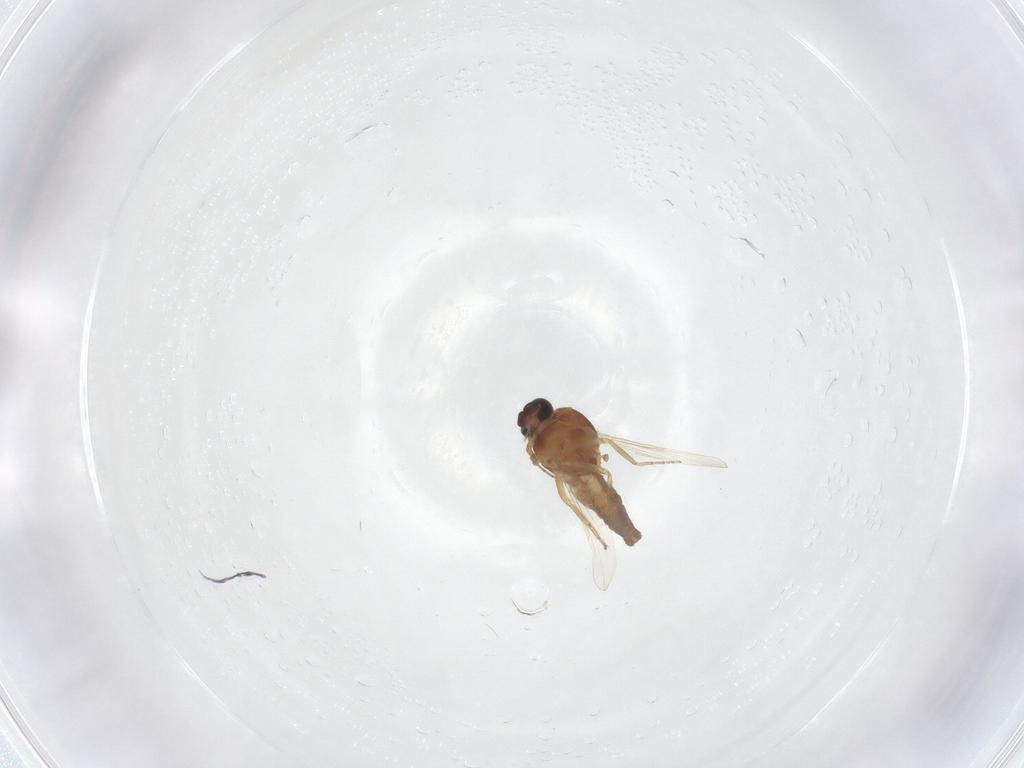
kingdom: Animalia
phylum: Arthropoda
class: Insecta
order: Diptera
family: Ceratopogonidae
